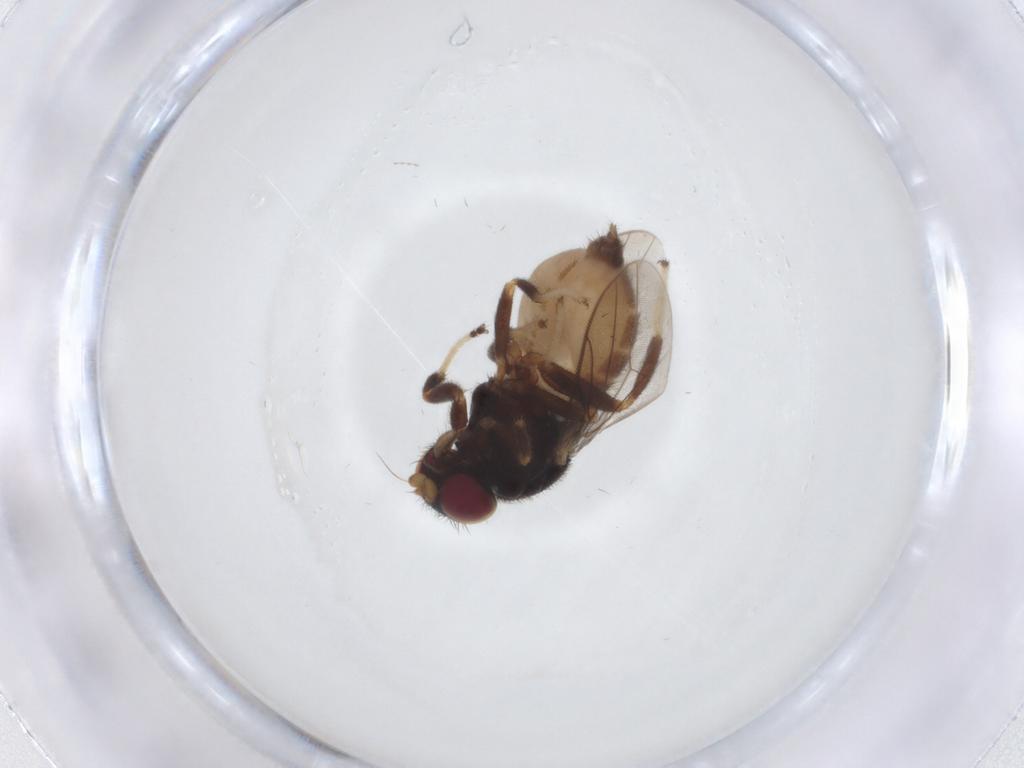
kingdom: Animalia
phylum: Arthropoda
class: Insecta
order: Diptera
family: Chloropidae
